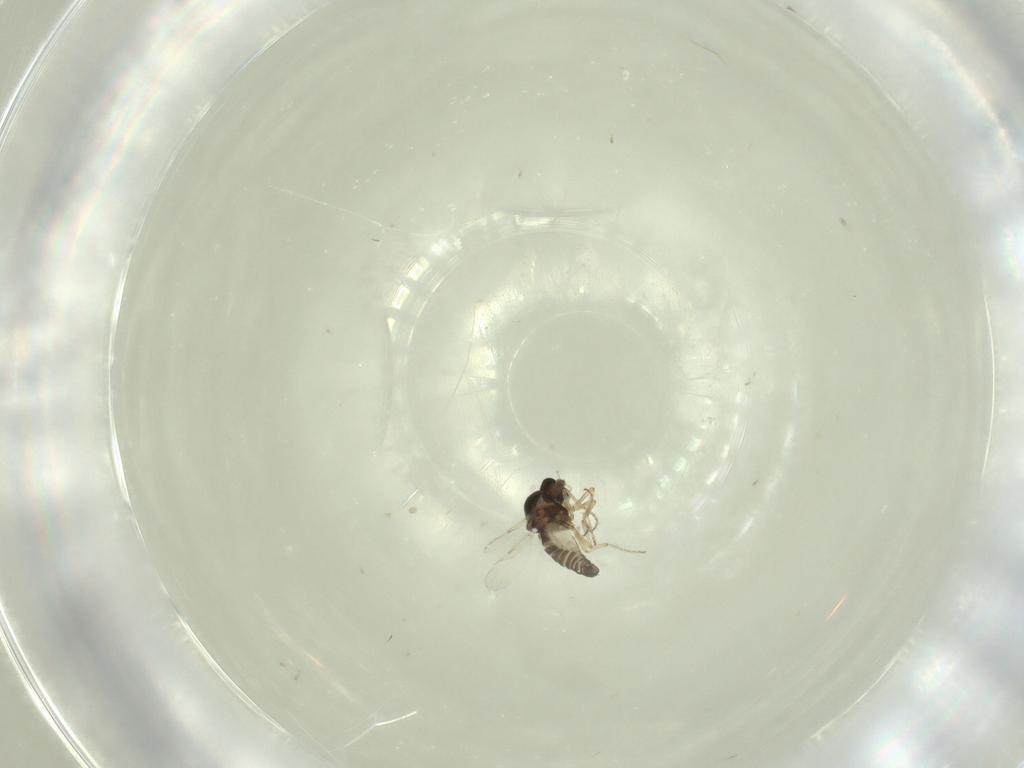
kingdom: Animalia
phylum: Arthropoda
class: Insecta
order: Diptera
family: Ceratopogonidae
